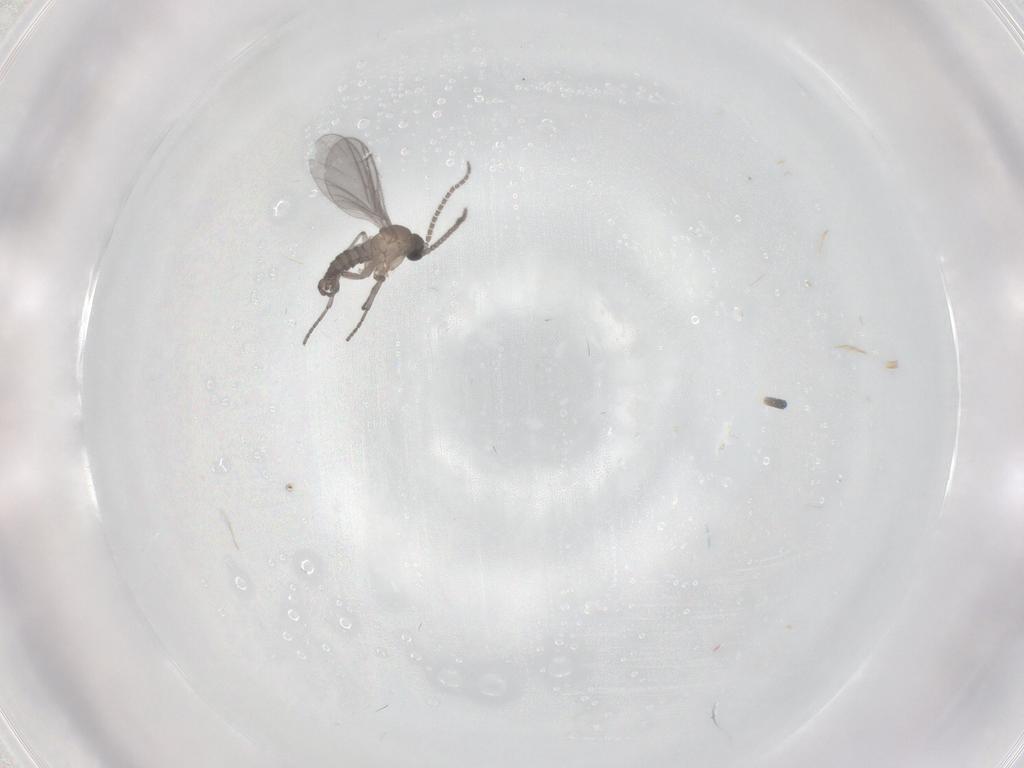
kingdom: Animalia
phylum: Arthropoda
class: Insecta
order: Diptera
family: Sciaridae
